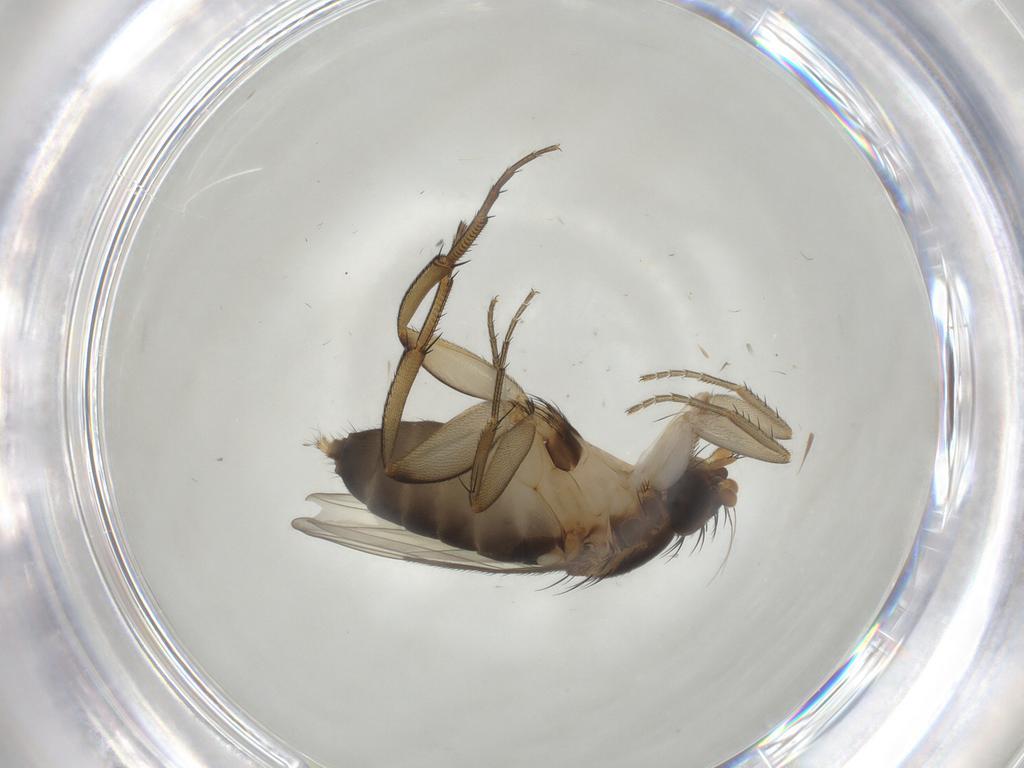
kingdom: Animalia
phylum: Arthropoda
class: Insecta
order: Diptera
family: Phoridae
